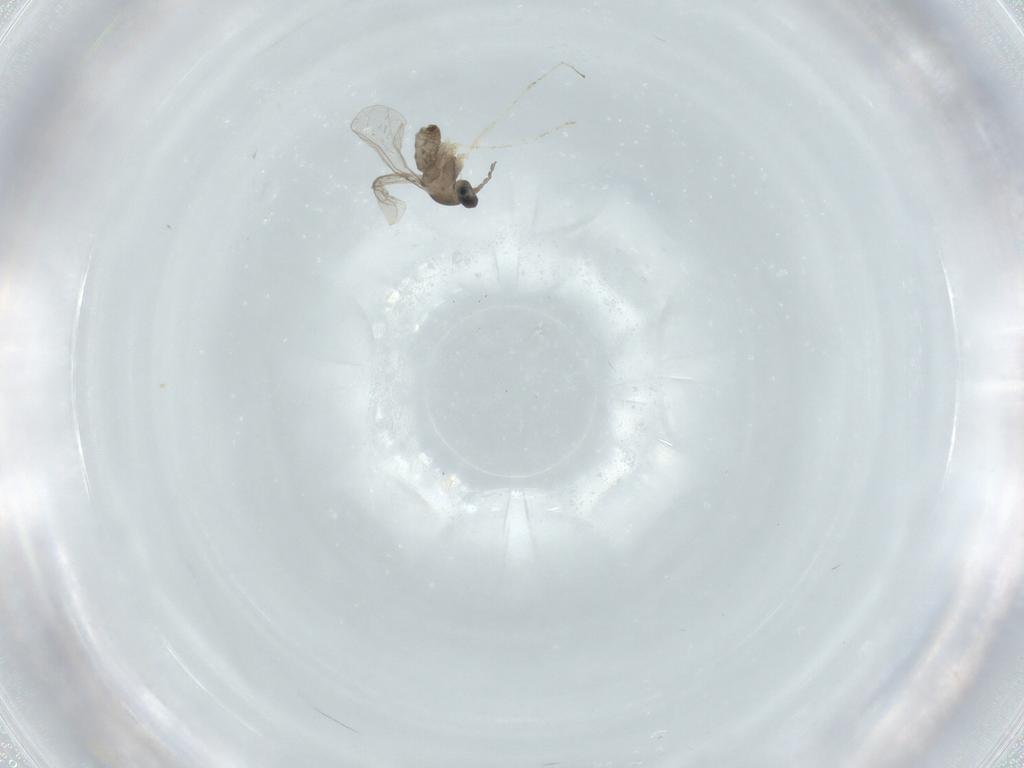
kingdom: Animalia
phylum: Arthropoda
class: Insecta
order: Diptera
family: Cecidomyiidae
